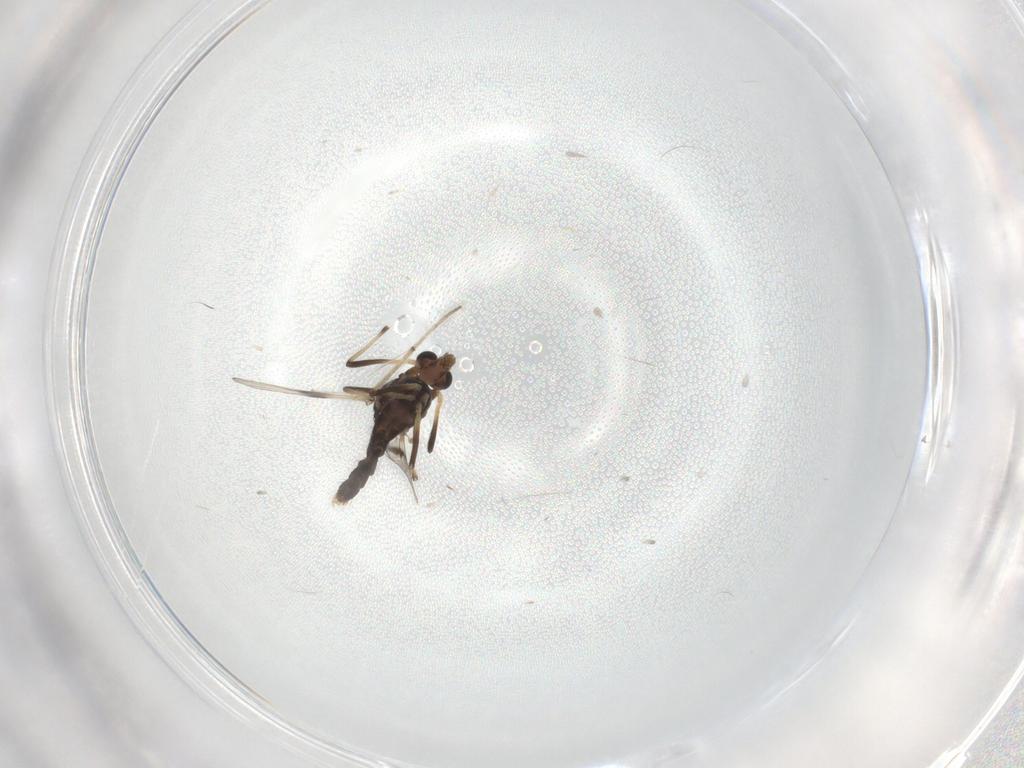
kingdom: Animalia
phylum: Arthropoda
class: Insecta
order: Diptera
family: Chironomidae
